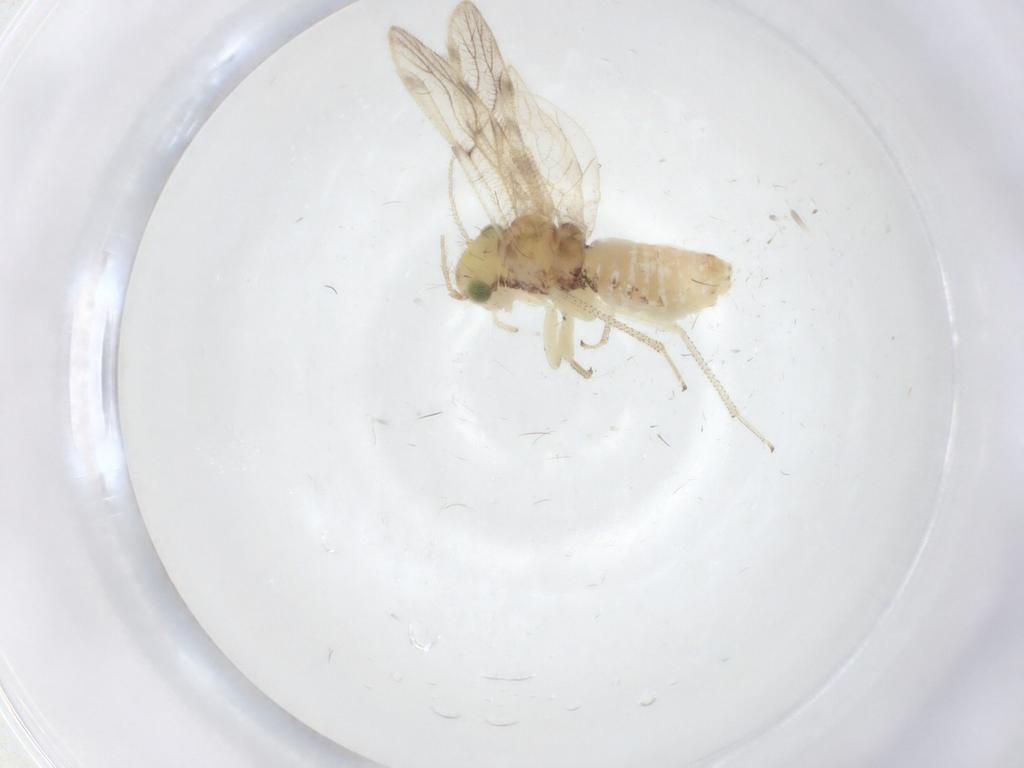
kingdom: Animalia
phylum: Arthropoda
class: Insecta
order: Psocodea
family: Pseudocaeciliidae
